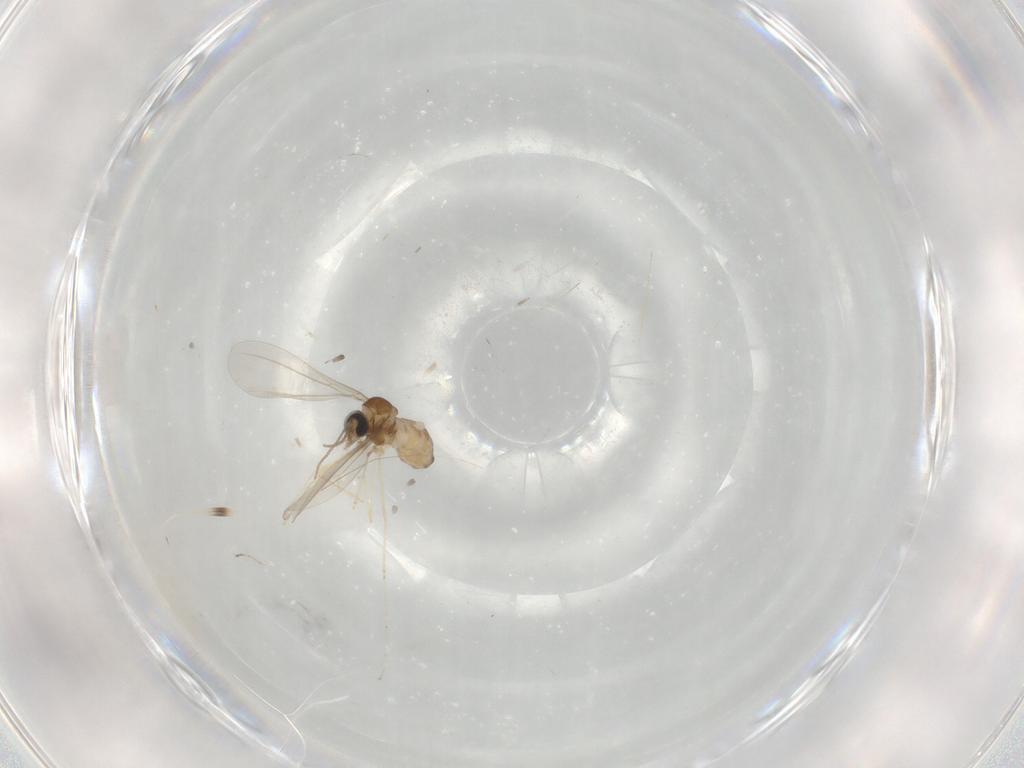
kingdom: Animalia
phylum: Arthropoda
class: Insecta
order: Diptera
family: Cecidomyiidae
